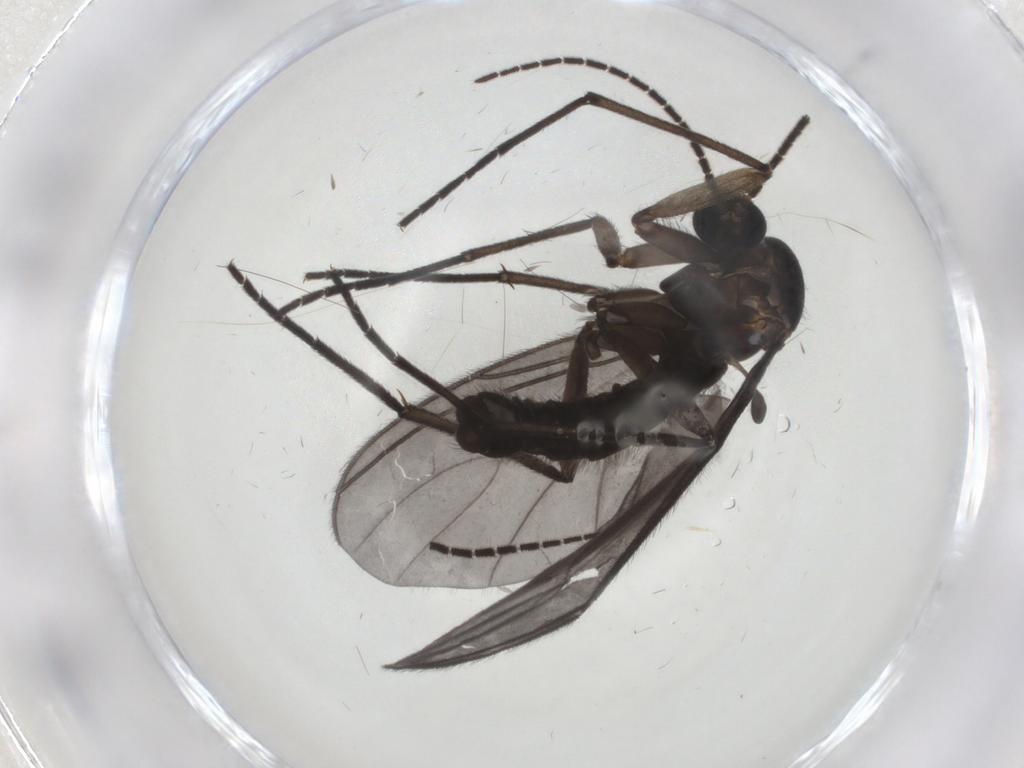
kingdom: Animalia
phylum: Arthropoda
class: Insecta
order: Diptera
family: Sciaridae
